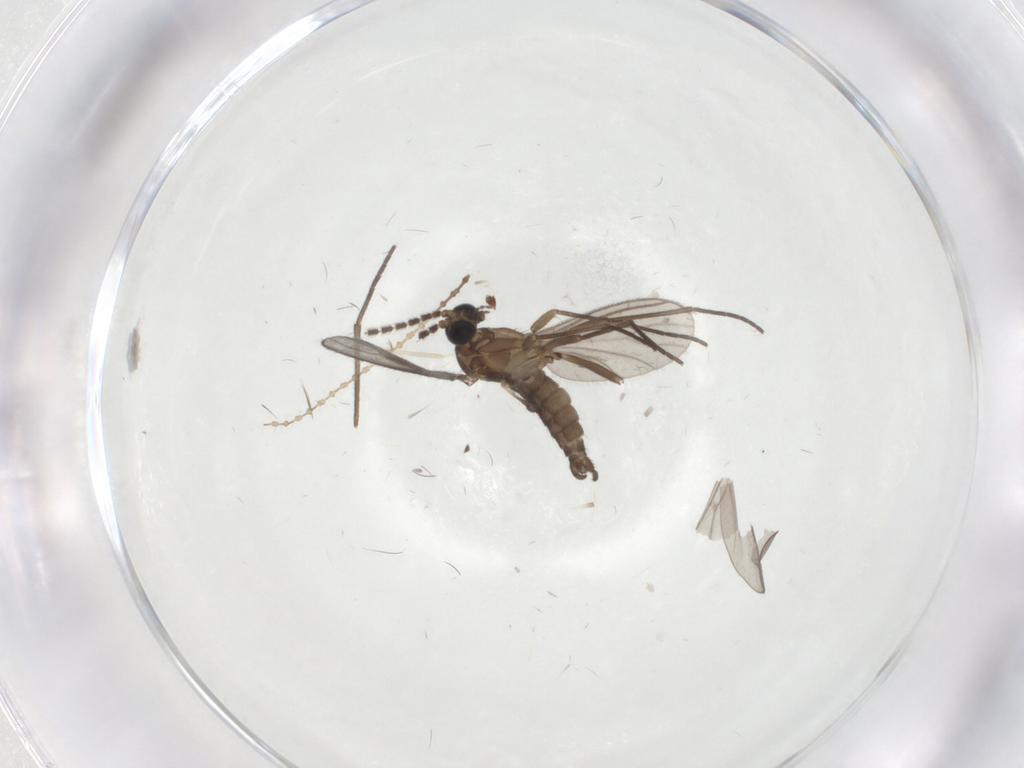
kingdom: Animalia
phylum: Arthropoda
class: Insecta
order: Diptera
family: Sciaridae
